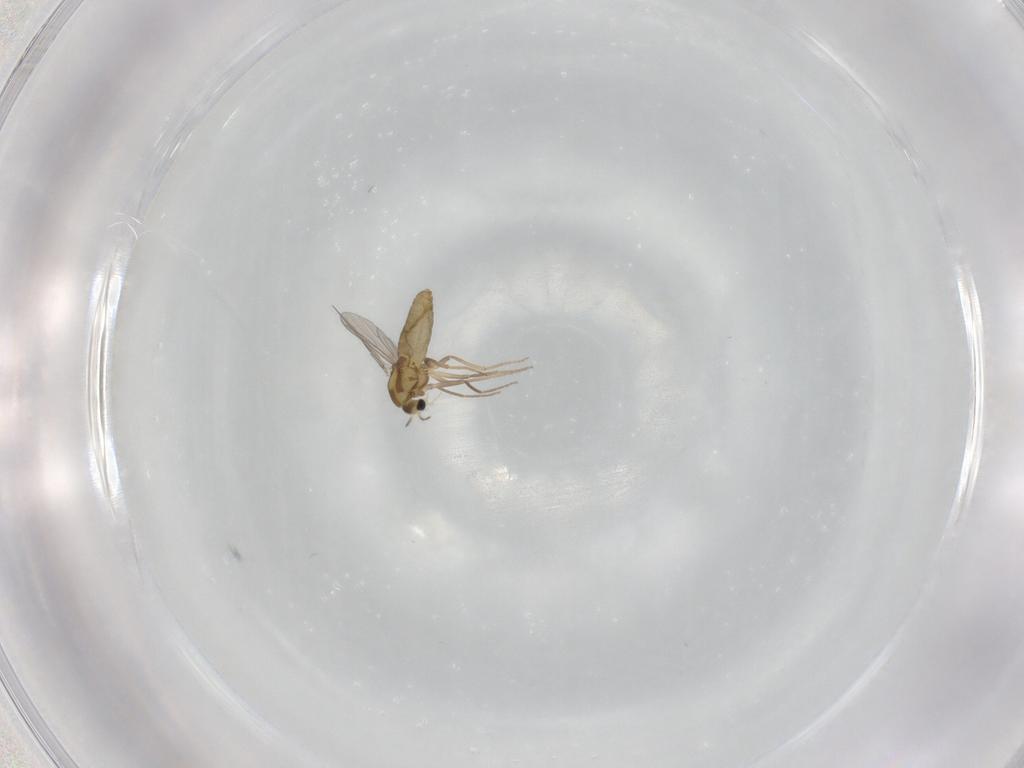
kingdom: Animalia
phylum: Arthropoda
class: Insecta
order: Diptera
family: Chironomidae
